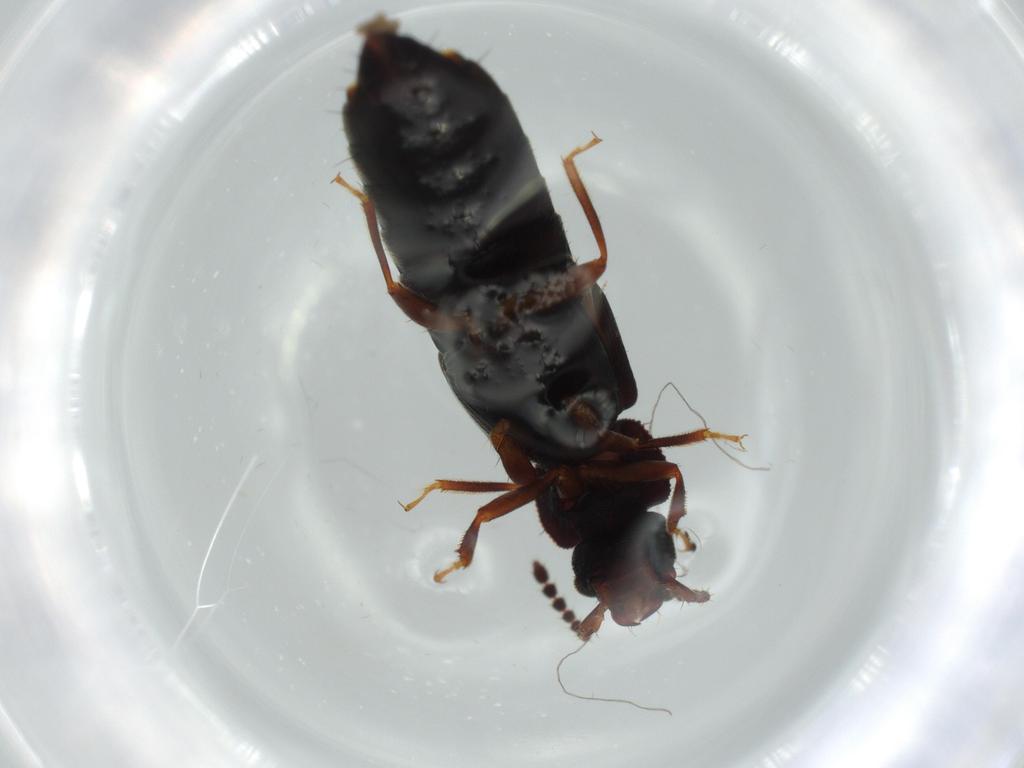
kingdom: Animalia
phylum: Arthropoda
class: Insecta
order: Coleoptera
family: Staphylinidae
